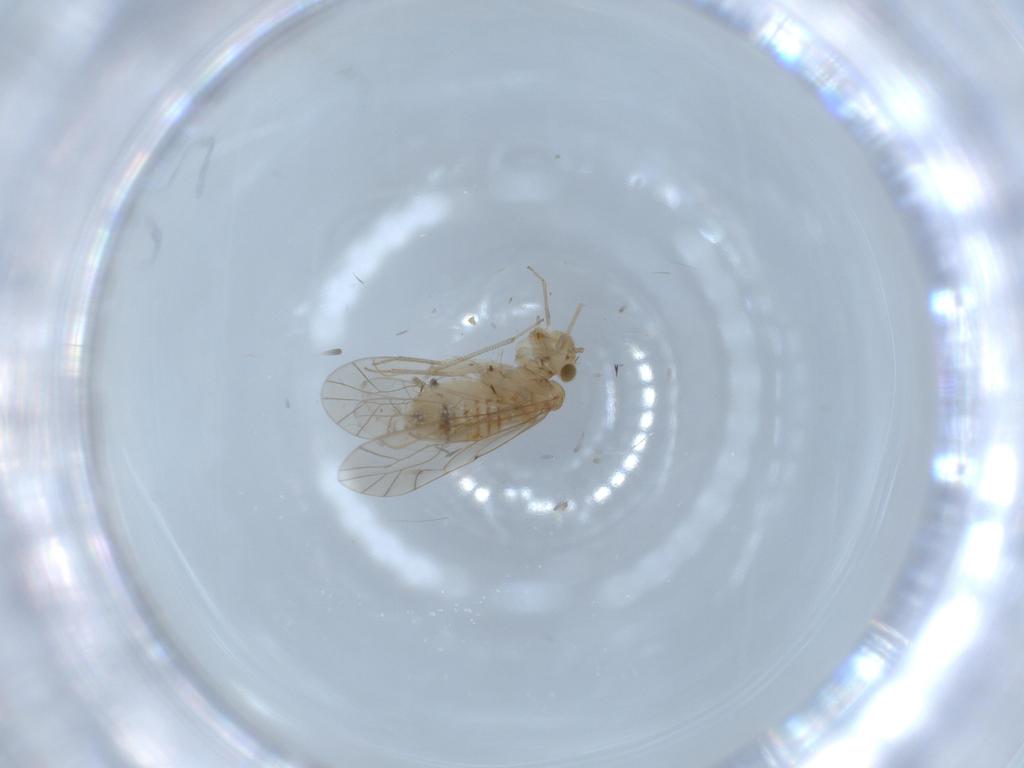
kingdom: Animalia
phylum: Arthropoda
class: Insecta
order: Psocodea
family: Lachesillidae
